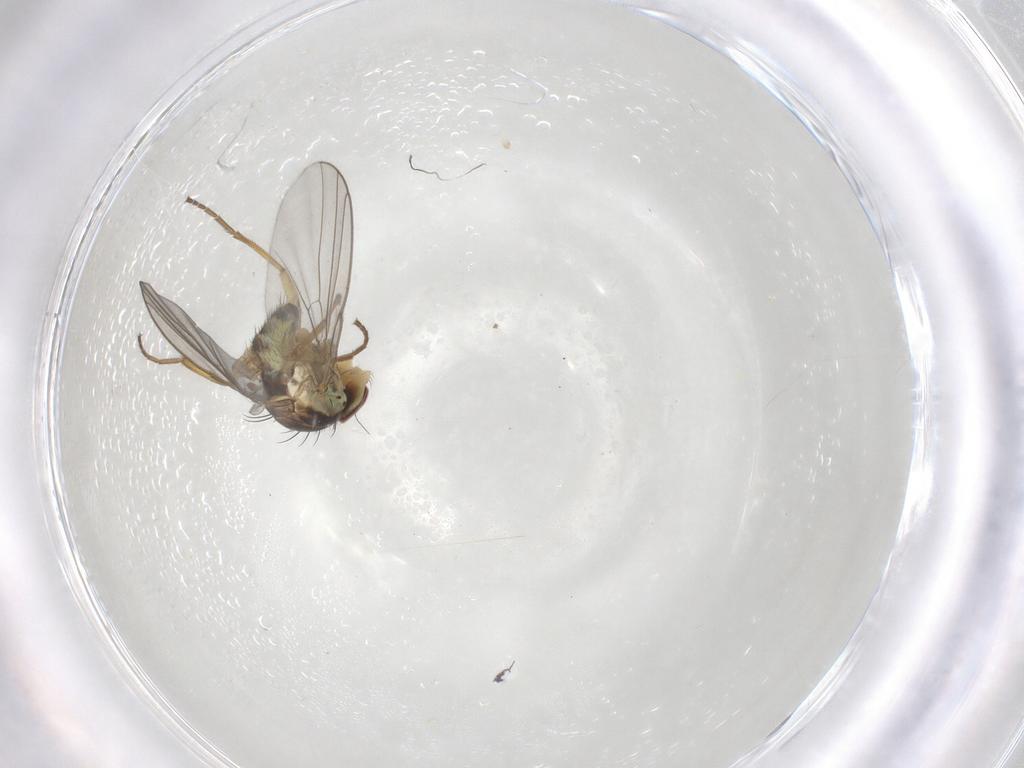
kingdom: Animalia
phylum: Arthropoda
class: Insecta
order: Diptera
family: Agromyzidae
